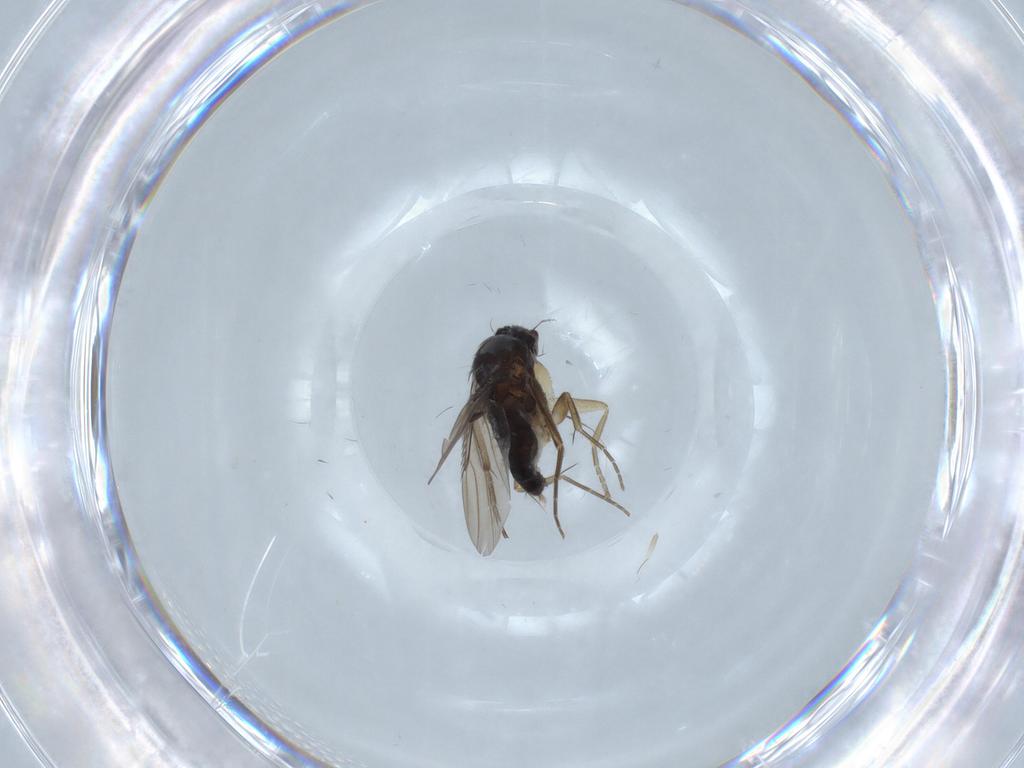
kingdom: Animalia
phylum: Arthropoda
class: Insecta
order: Diptera
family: Phoridae
